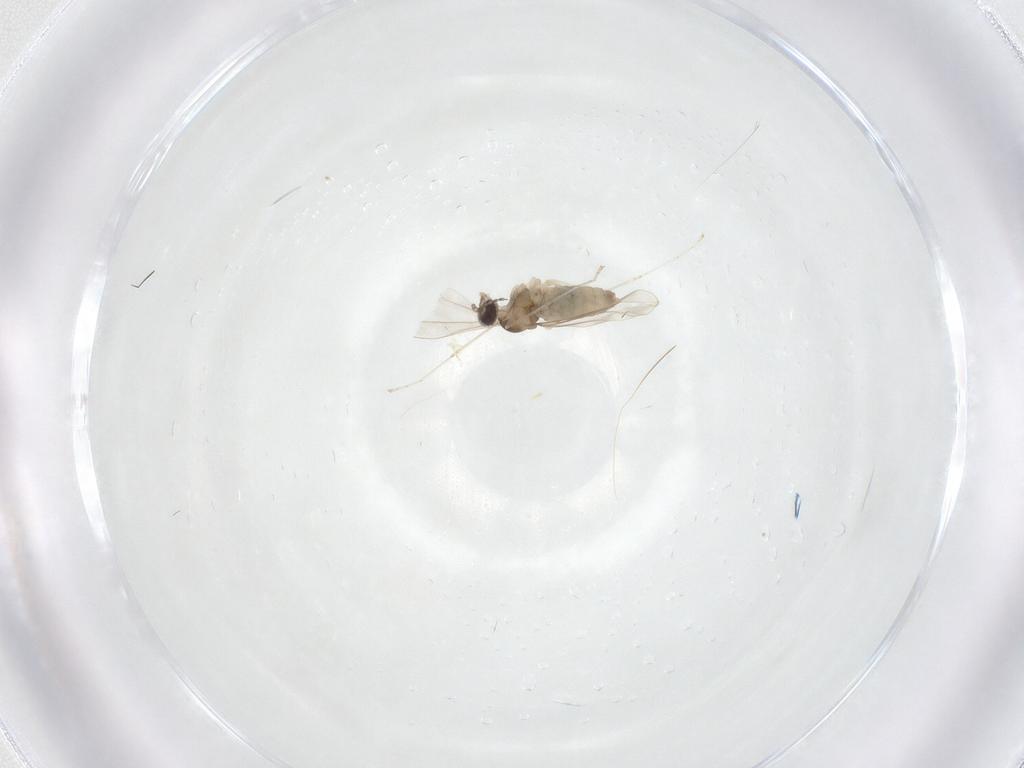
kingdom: Animalia
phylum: Arthropoda
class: Insecta
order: Diptera
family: Cecidomyiidae
